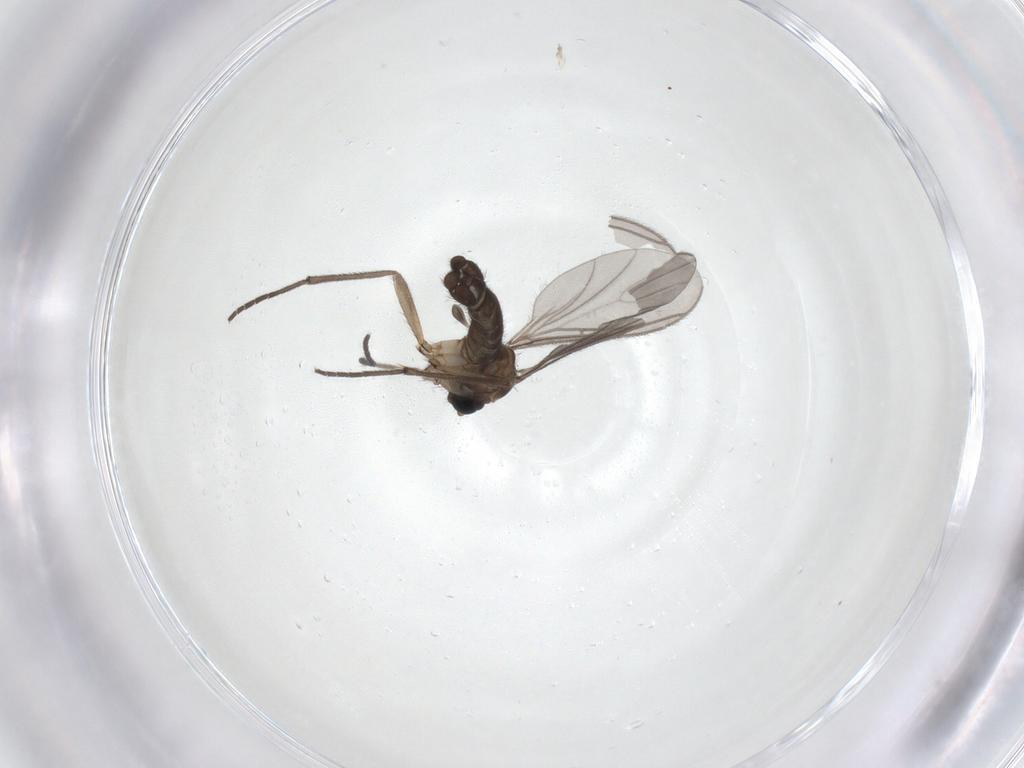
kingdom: Animalia
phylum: Arthropoda
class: Insecta
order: Diptera
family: Sciaridae
